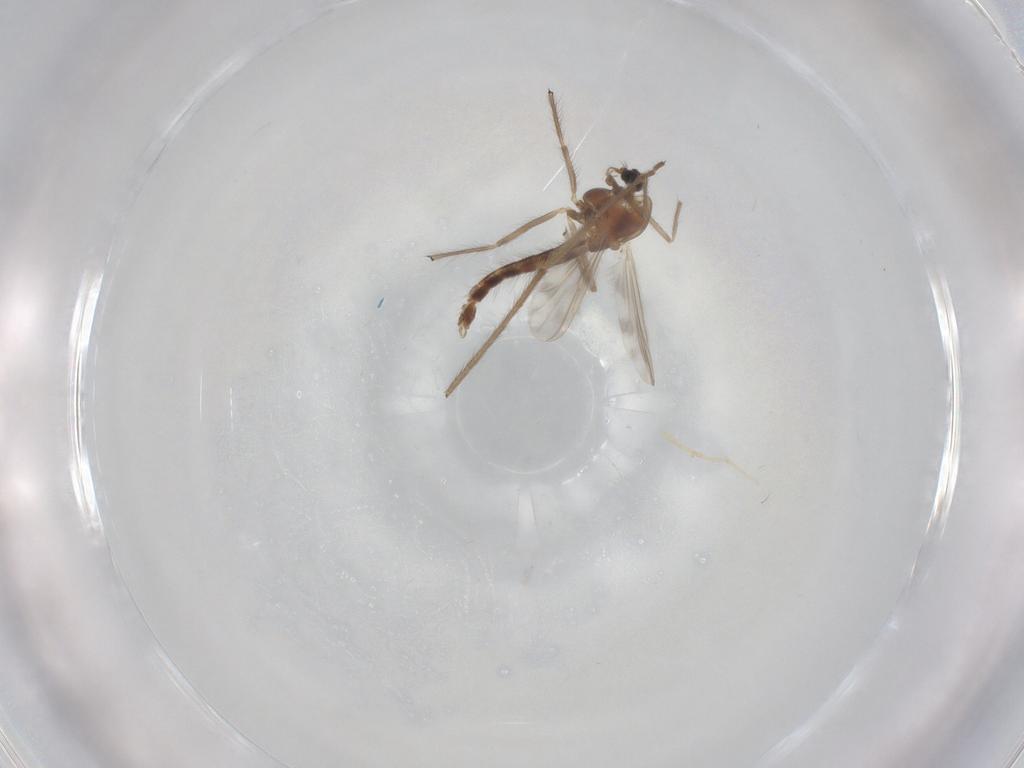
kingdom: Animalia
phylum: Arthropoda
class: Insecta
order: Diptera
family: Chironomidae
